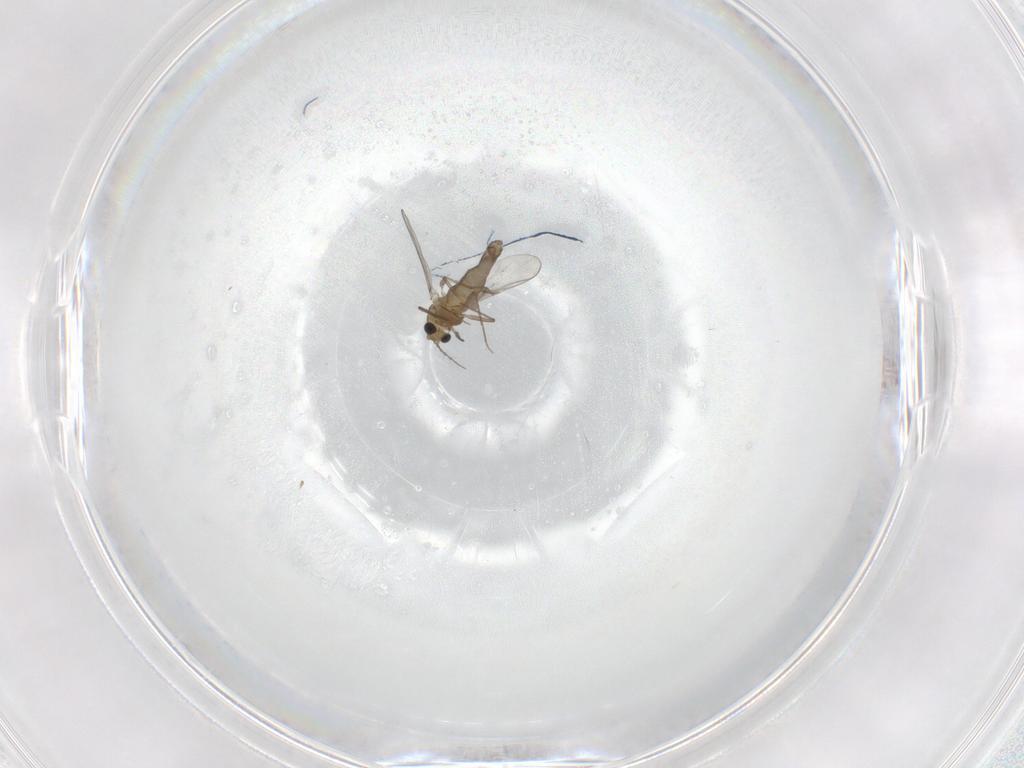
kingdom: Animalia
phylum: Arthropoda
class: Insecta
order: Diptera
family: Chironomidae
